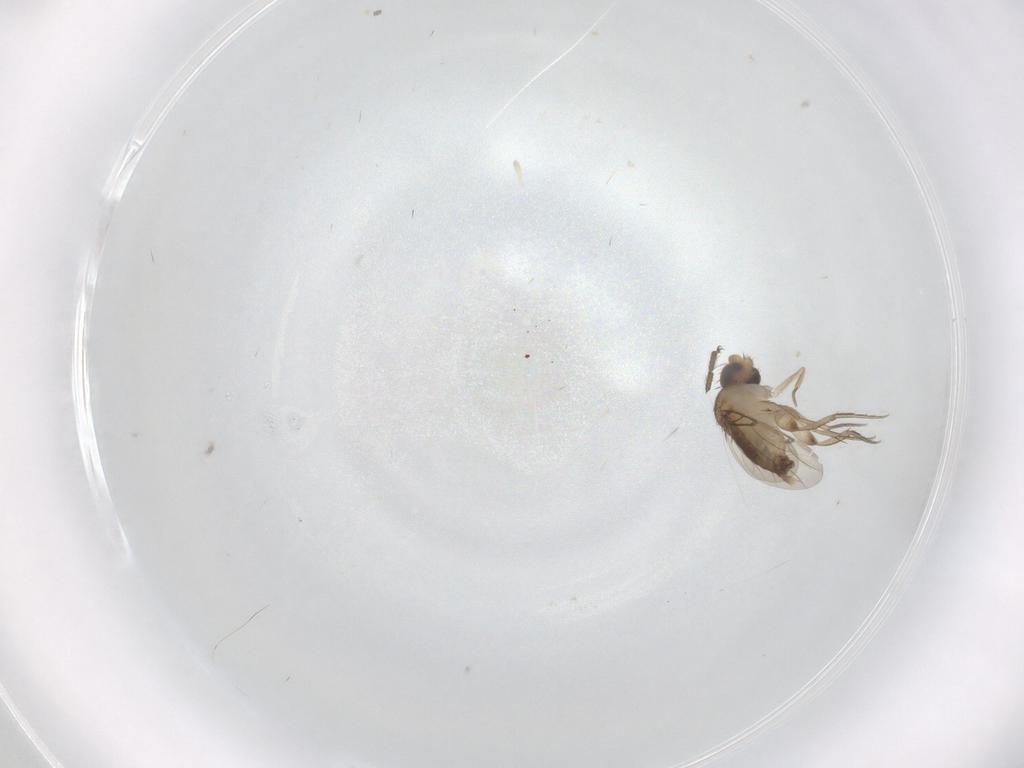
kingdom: Animalia
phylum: Arthropoda
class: Insecta
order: Diptera
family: Phoridae
